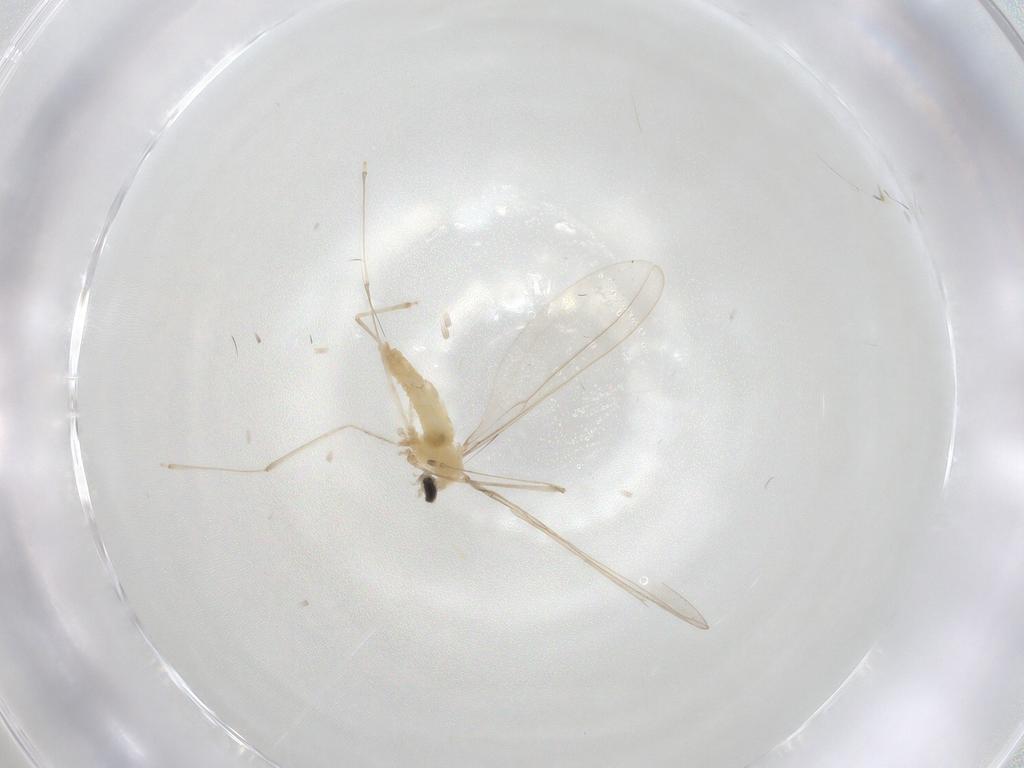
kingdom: Animalia
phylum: Arthropoda
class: Insecta
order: Diptera
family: Cecidomyiidae
